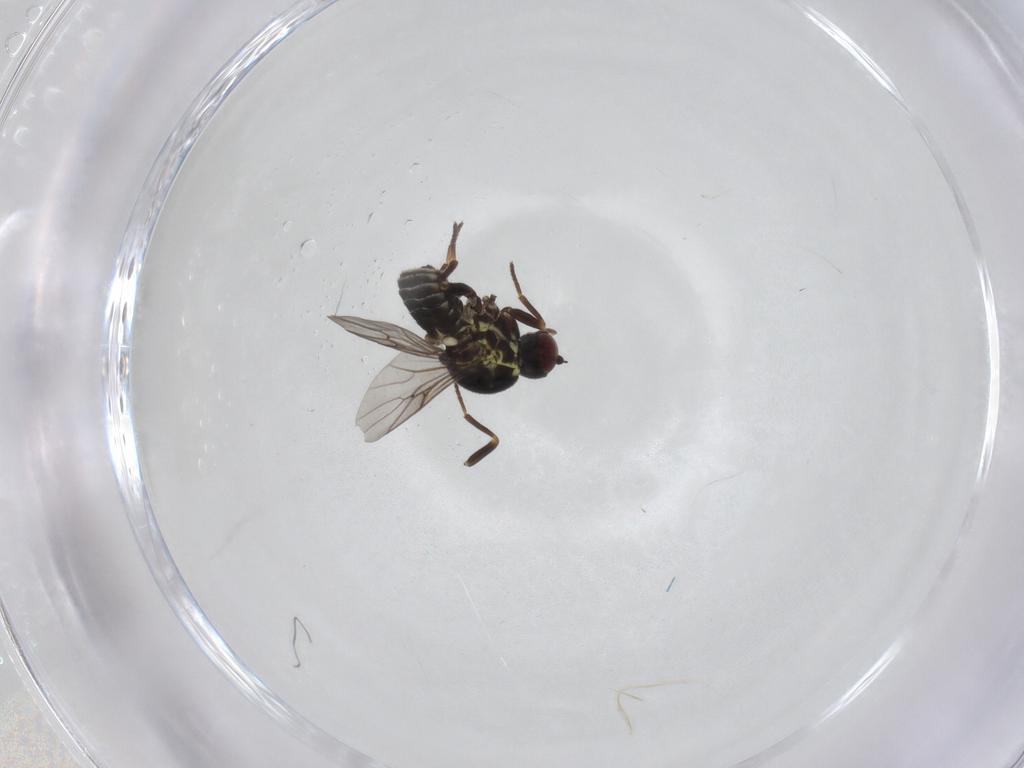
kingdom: Animalia
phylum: Arthropoda
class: Insecta
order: Diptera
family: Bombyliidae
